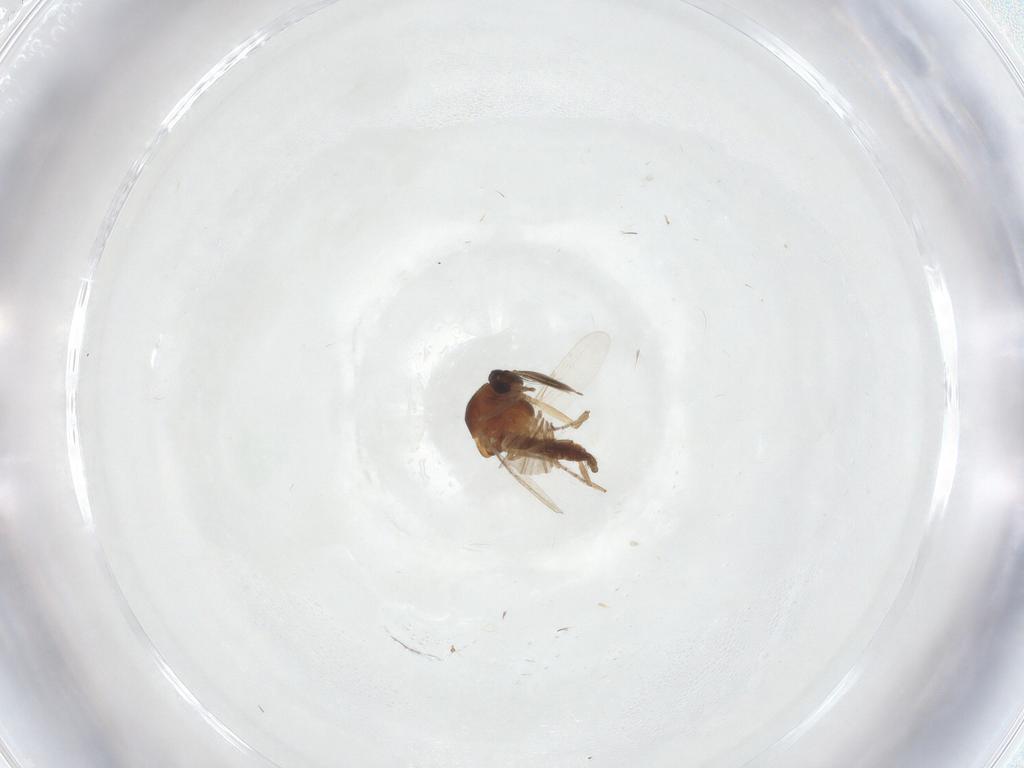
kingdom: Animalia
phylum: Arthropoda
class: Insecta
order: Diptera
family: Ceratopogonidae
